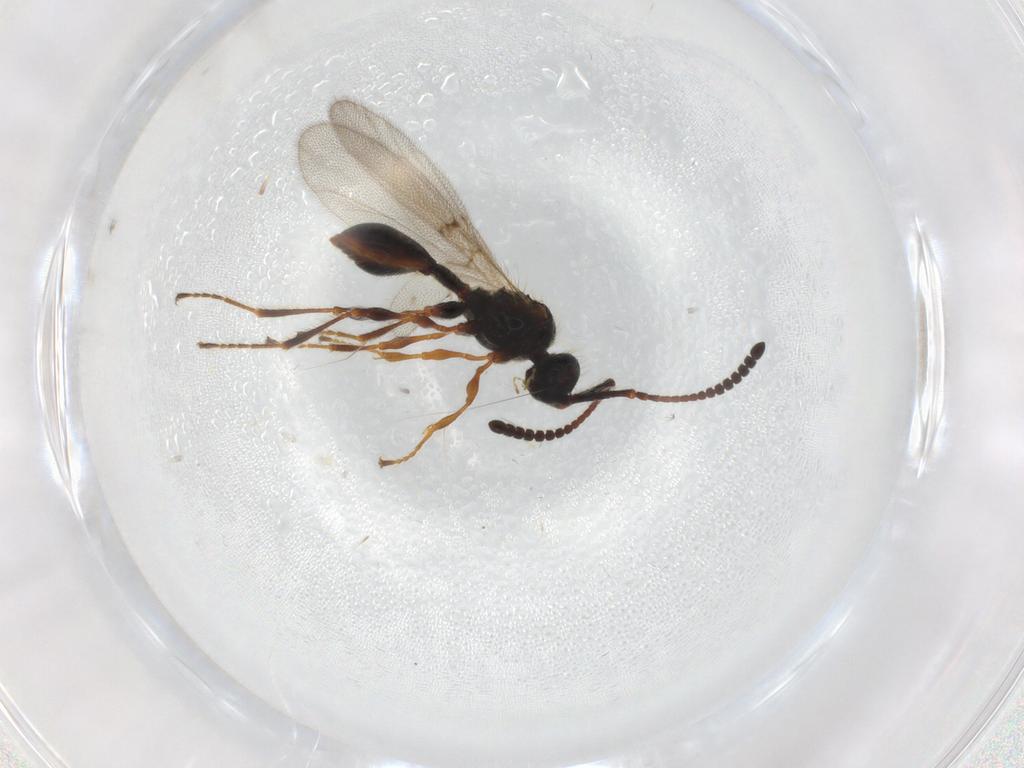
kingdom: Animalia
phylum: Arthropoda
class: Insecta
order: Hymenoptera
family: Diapriidae
